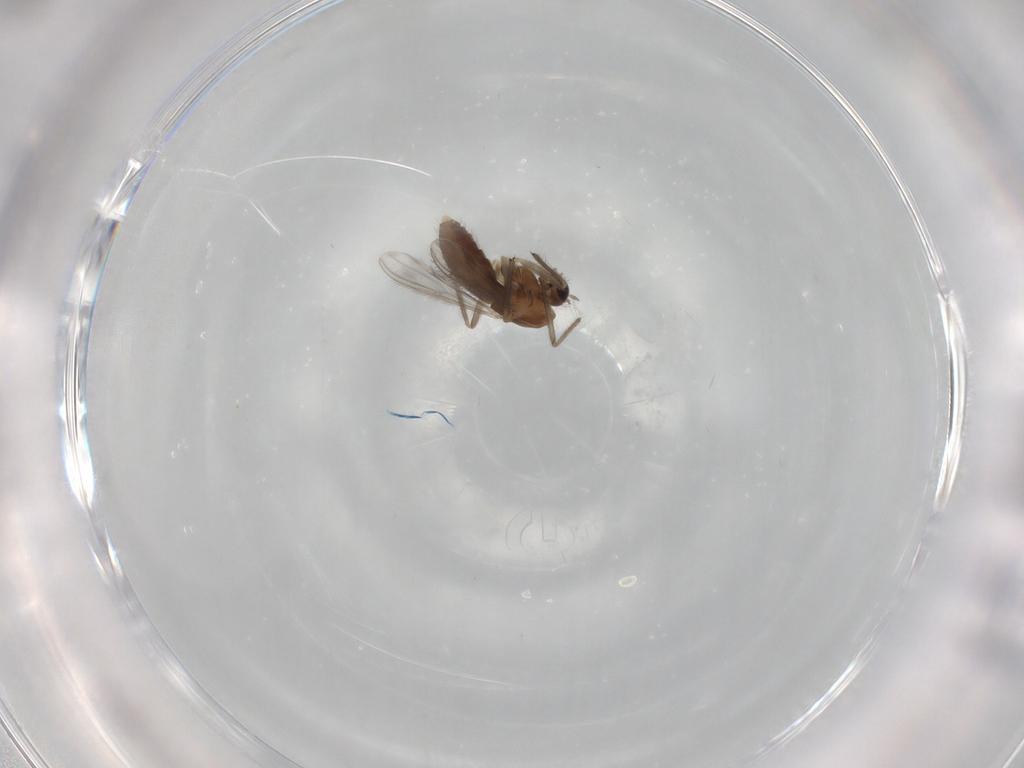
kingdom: Animalia
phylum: Arthropoda
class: Insecta
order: Diptera
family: Chironomidae
